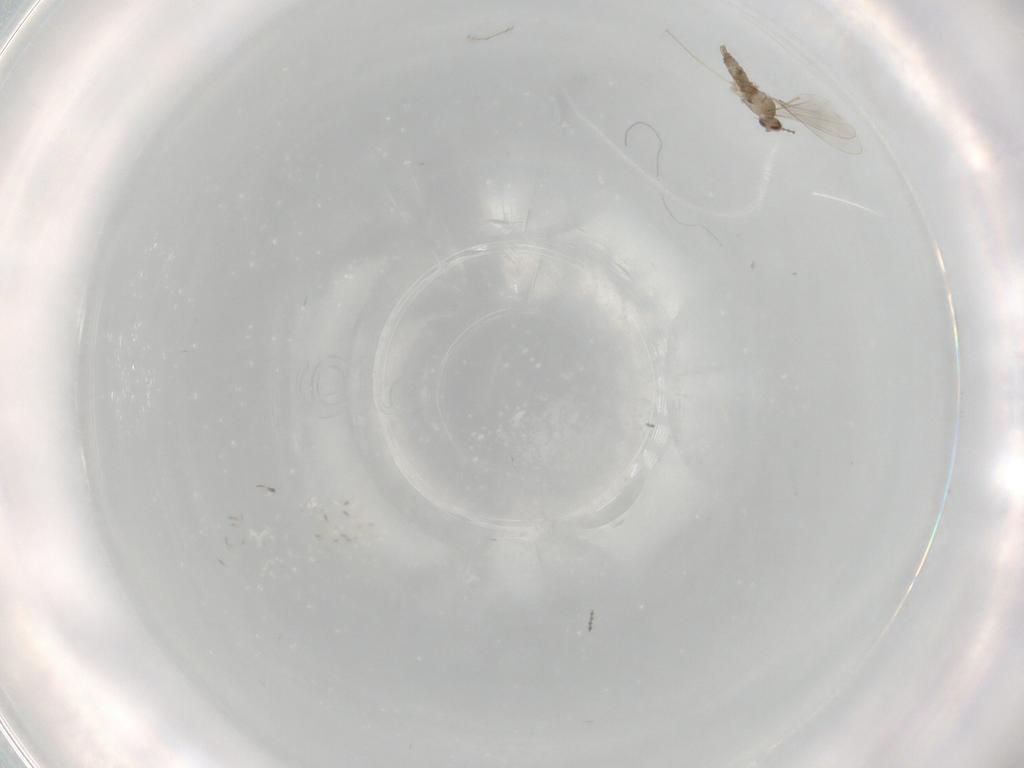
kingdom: Animalia
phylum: Arthropoda
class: Insecta
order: Diptera
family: Cecidomyiidae
